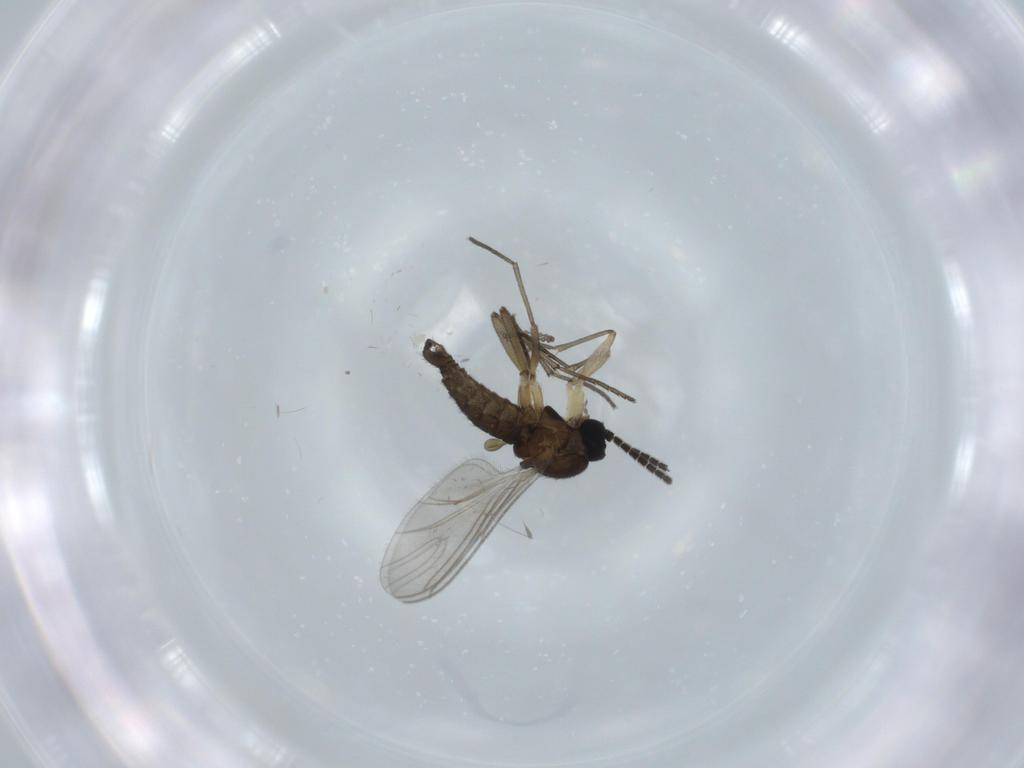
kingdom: Animalia
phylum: Arthropoda
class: Insecta
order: Diptera
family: Sciaridae
